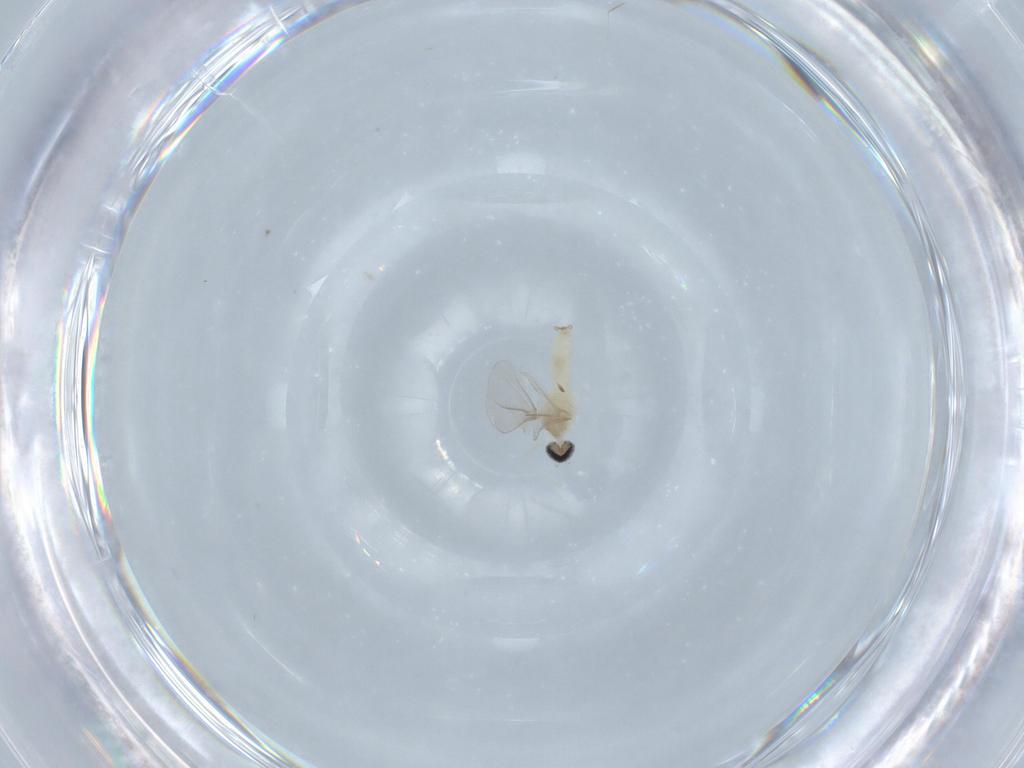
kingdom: Animalia
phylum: Arthropoda
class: Insecta
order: Diptera
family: Cecidomyiidae
